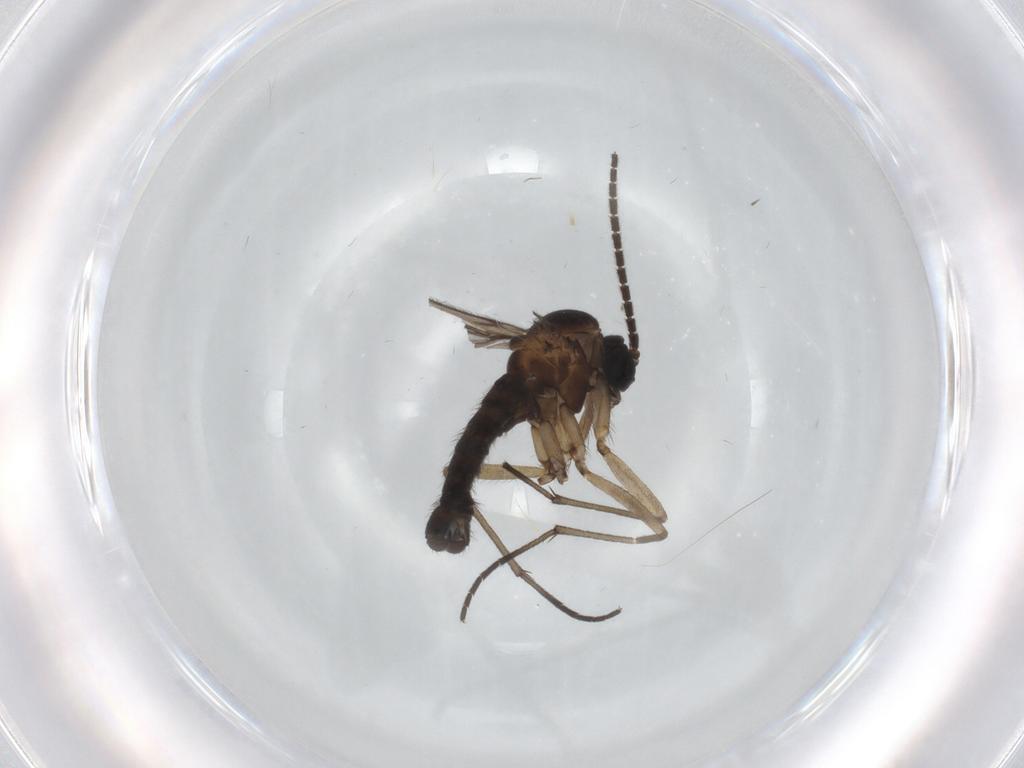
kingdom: Animalia
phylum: Arthropoda
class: Insecta
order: Diptera
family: Sciaridae
